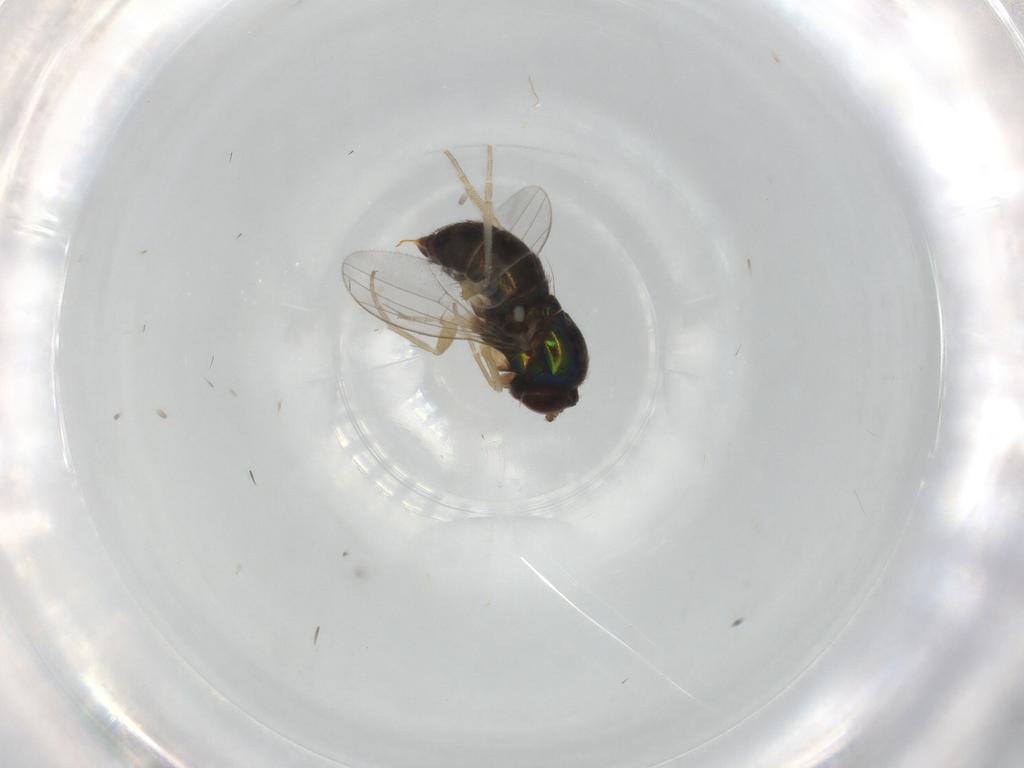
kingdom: Animalia
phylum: Arthropoda
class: Insecta
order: Diptera
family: Dolichopodidae
